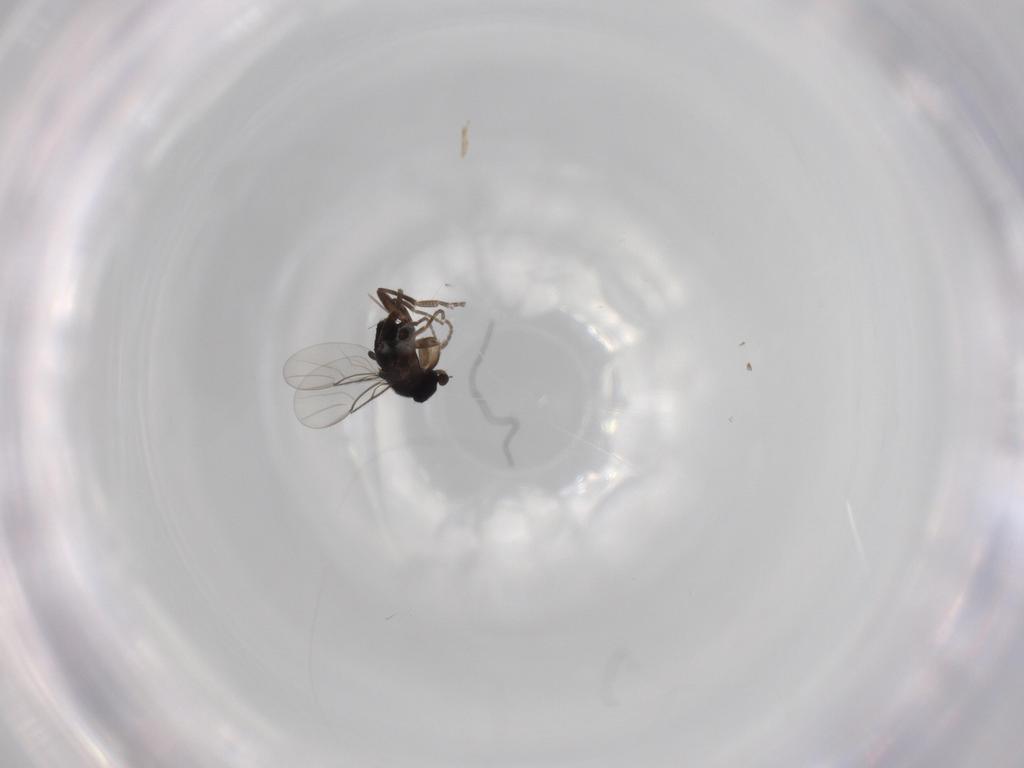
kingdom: Animalia
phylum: Arthropoda
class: Insecta
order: Diptera
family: Phoridae
